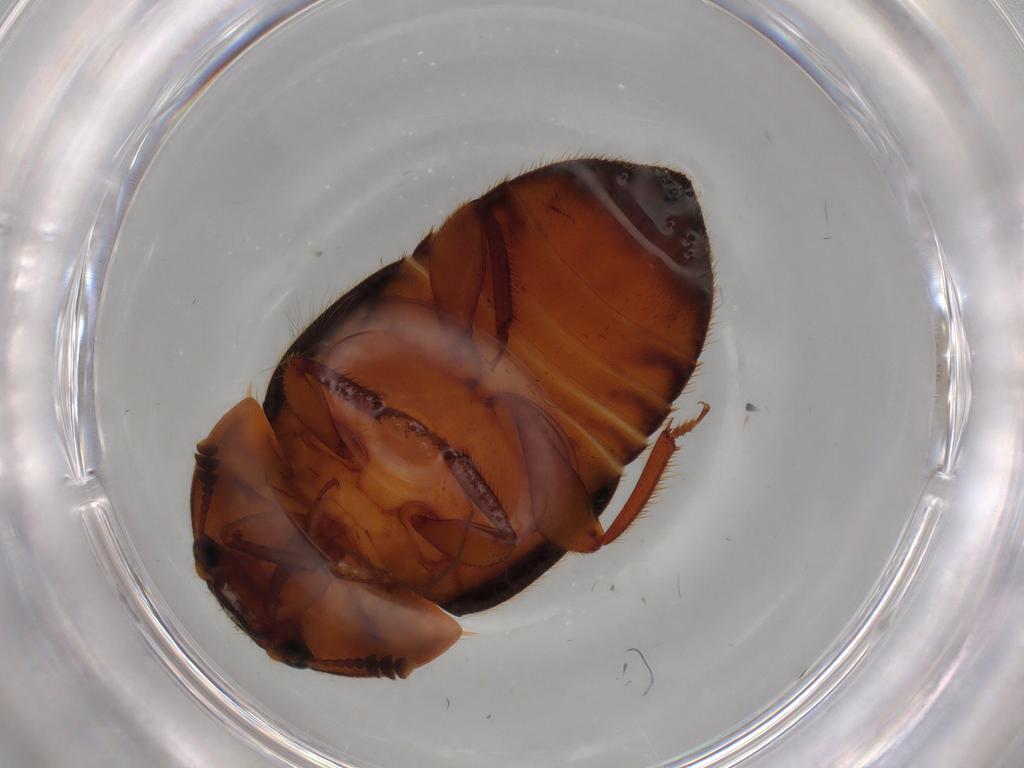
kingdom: Animalia
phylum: Arthropoda
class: Insecta
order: Coleoptera
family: Nitidulidae
